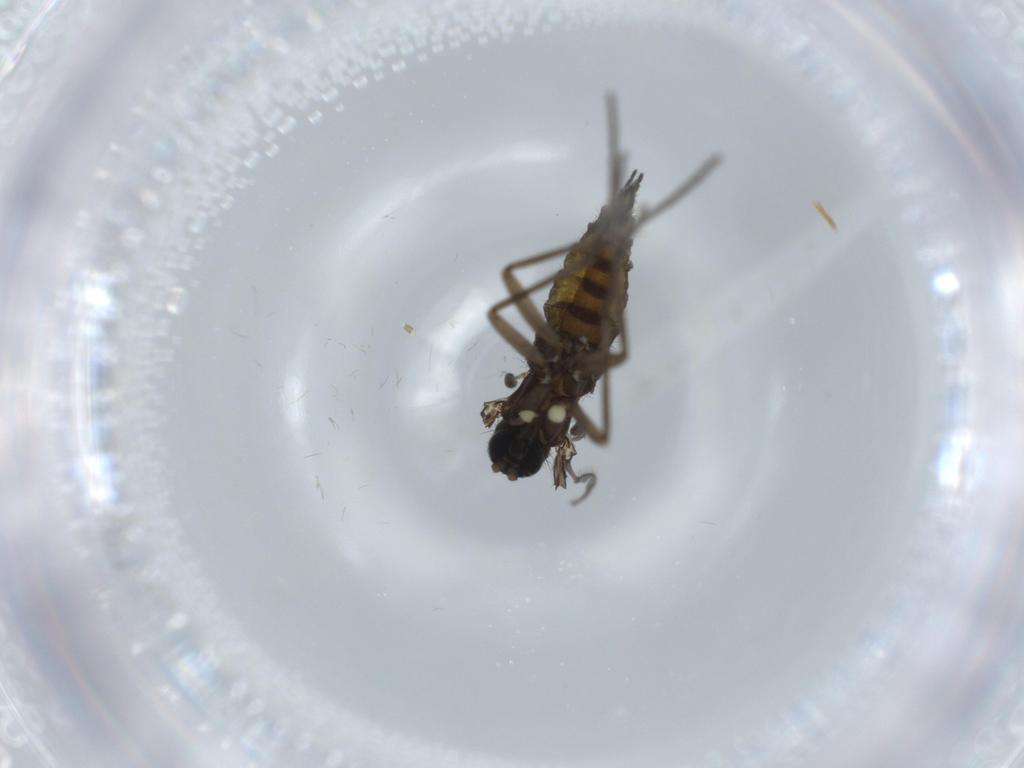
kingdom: Animalia
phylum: Arthropoda
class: Insecta
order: Diptera
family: Sciaridae
